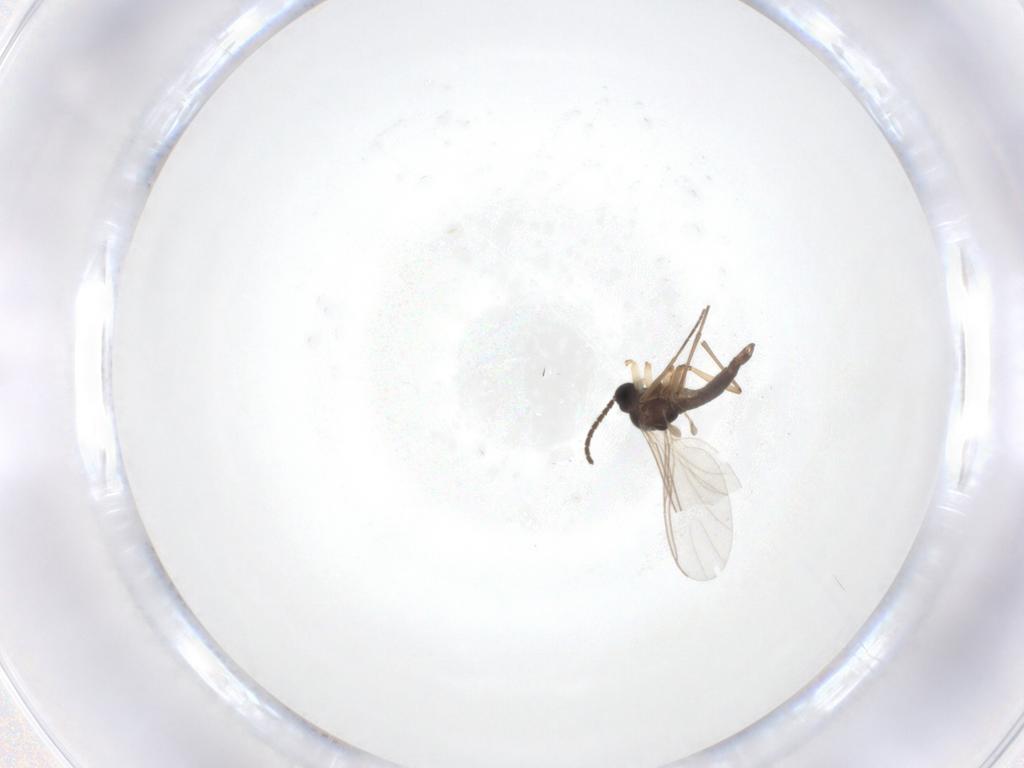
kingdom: Animalia
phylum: Arthropoda
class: Insecta
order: Diptera
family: Sciaridae
